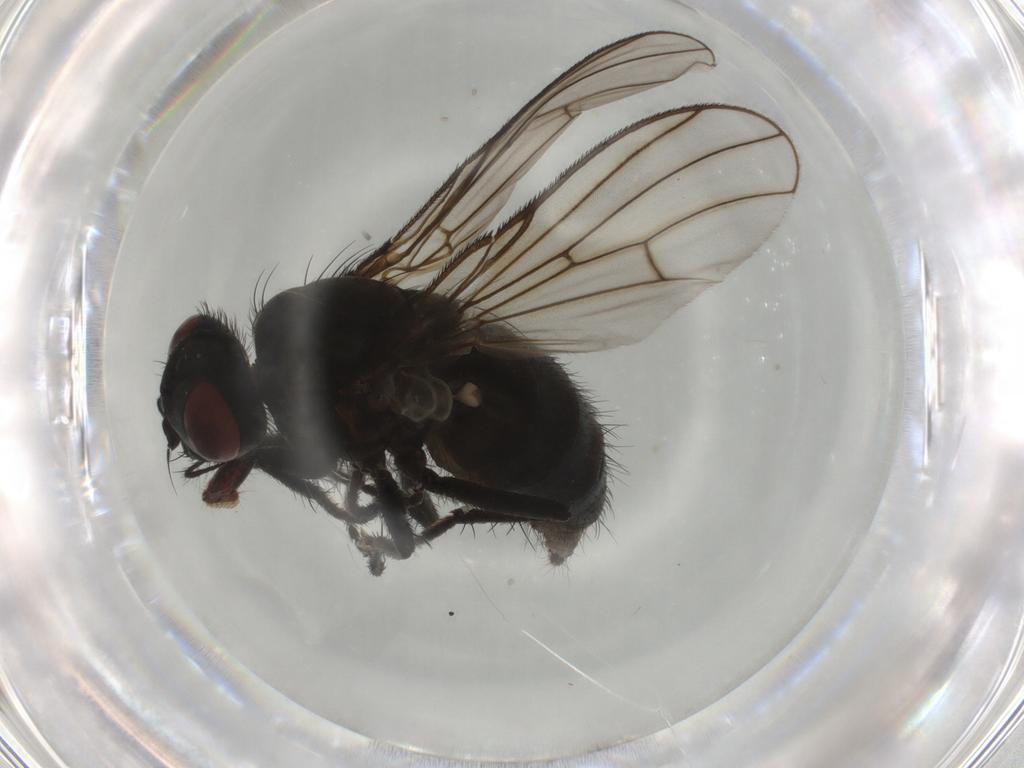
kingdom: Animalia
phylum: Arthropoda
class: Insecta
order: Diptera
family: Muscidae
